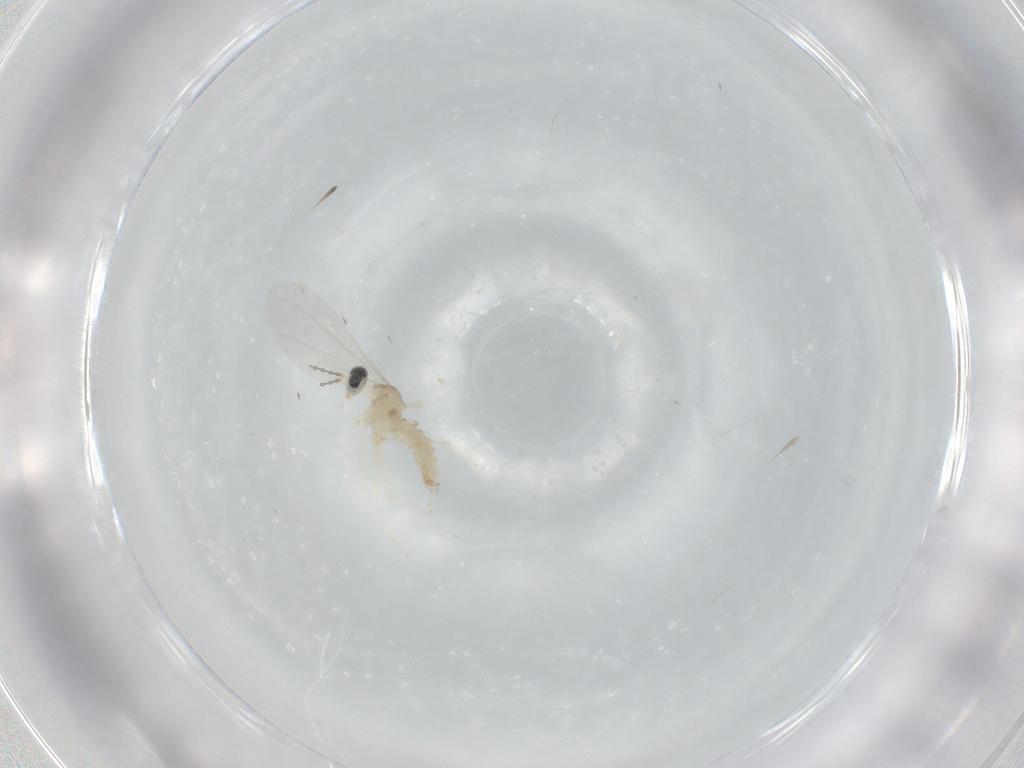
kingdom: Animalia
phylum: Arthropoda
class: Insecta
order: Diptera
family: Cecidomyiidae
